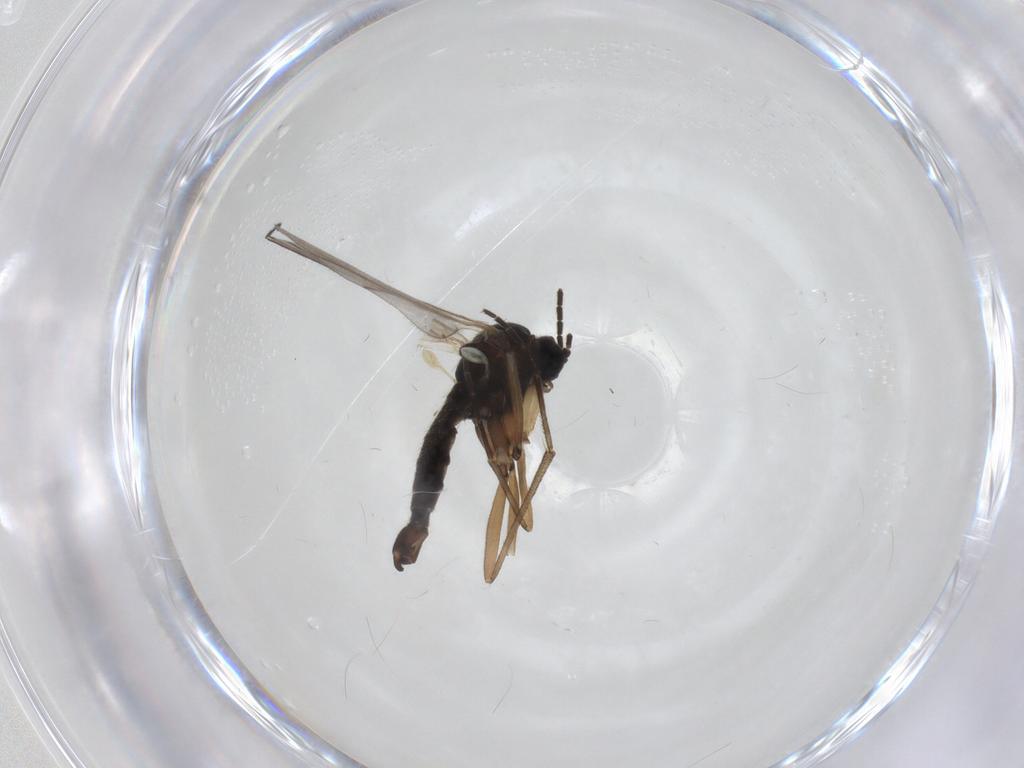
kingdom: Animalia
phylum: Arthropoda
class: Insecta
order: Diptera
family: Sciaridae
